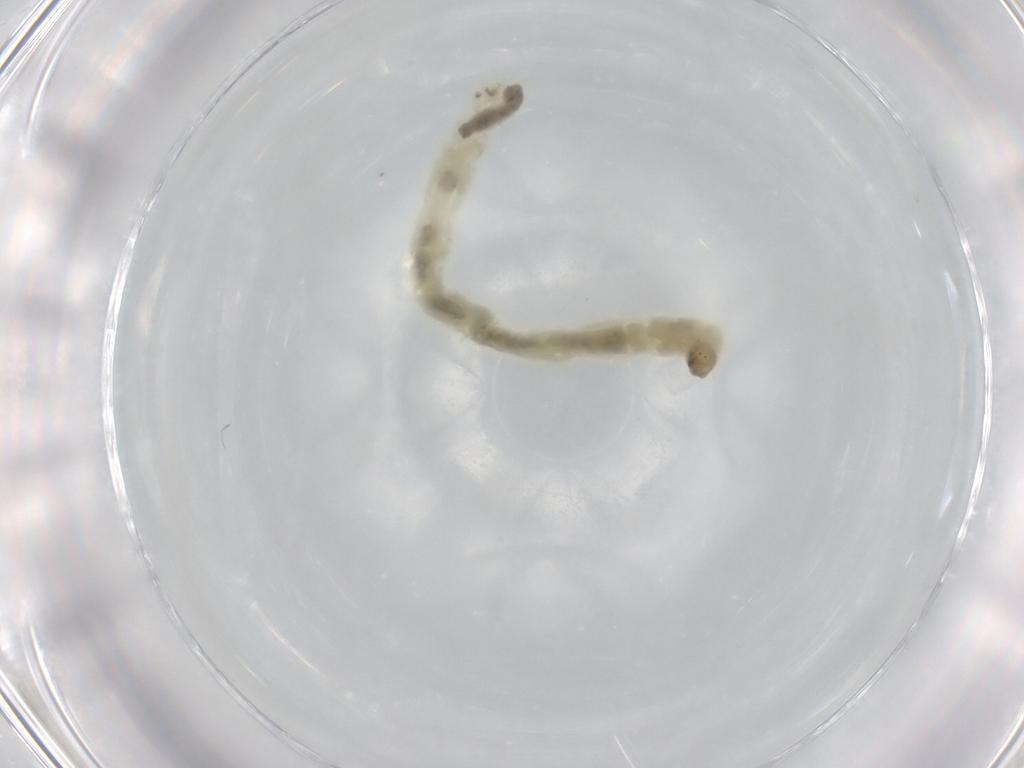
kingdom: Animalia
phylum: Arthropoda
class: Insecta
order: Diptera
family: Chironomidae
